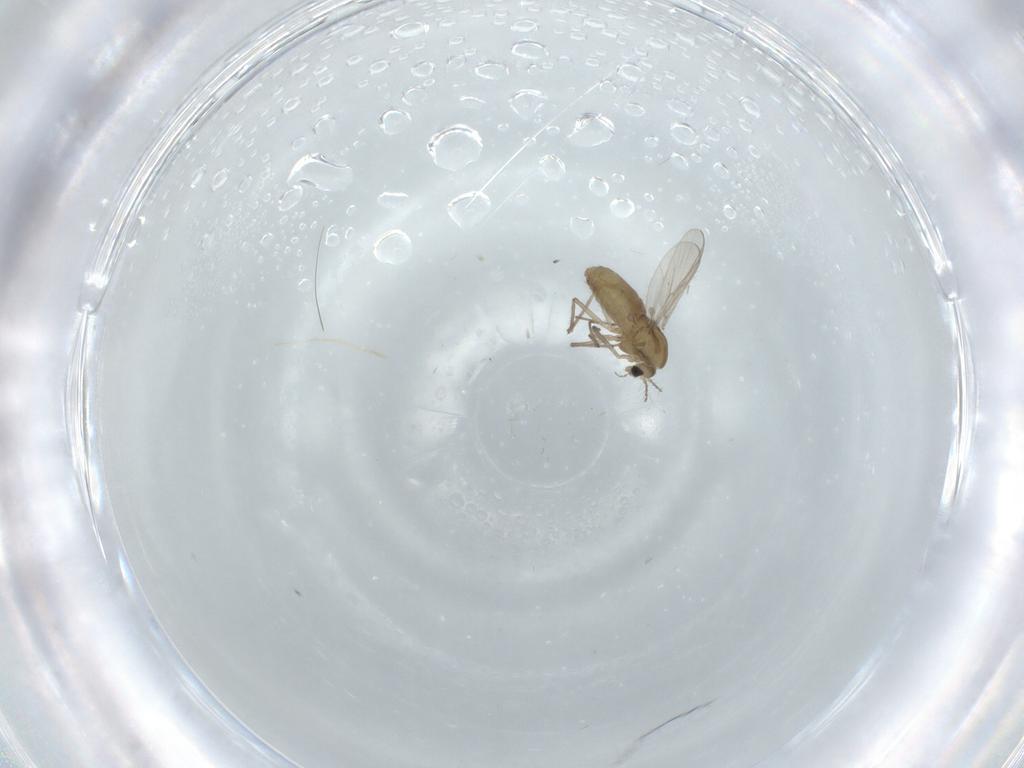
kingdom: Animalia
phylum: Arthropoda
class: Insecta
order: Diptera
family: Chironomidae
